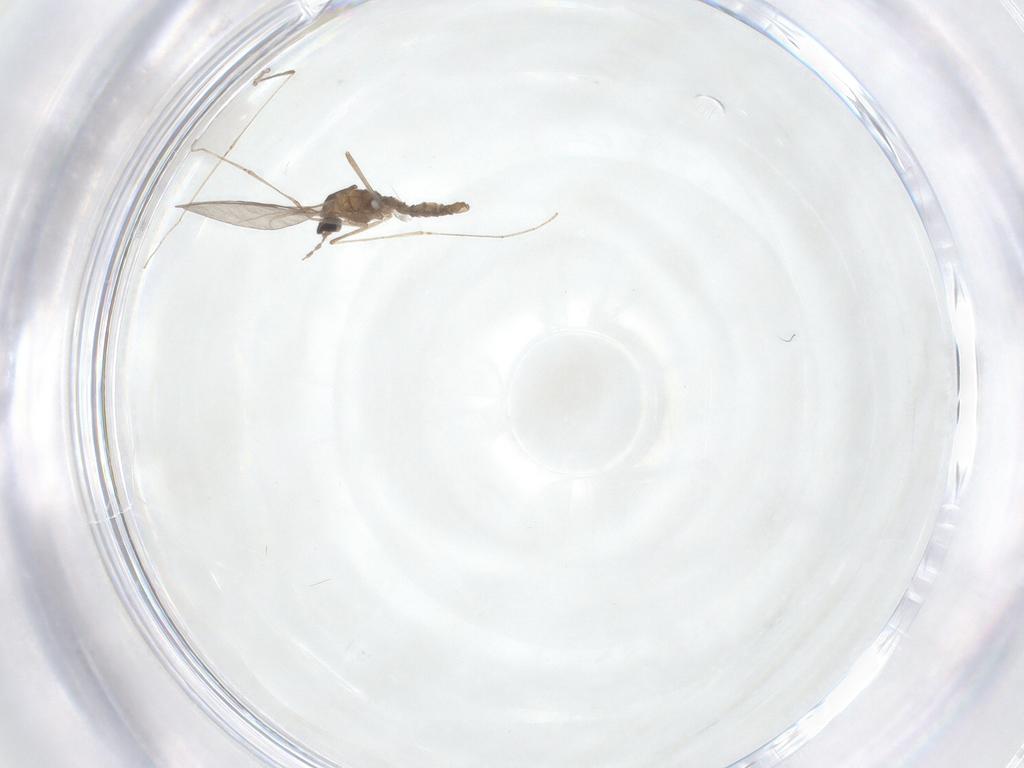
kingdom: Animalia
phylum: Arthropoda
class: Insecta
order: Diptera
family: Cecidomyiidae
